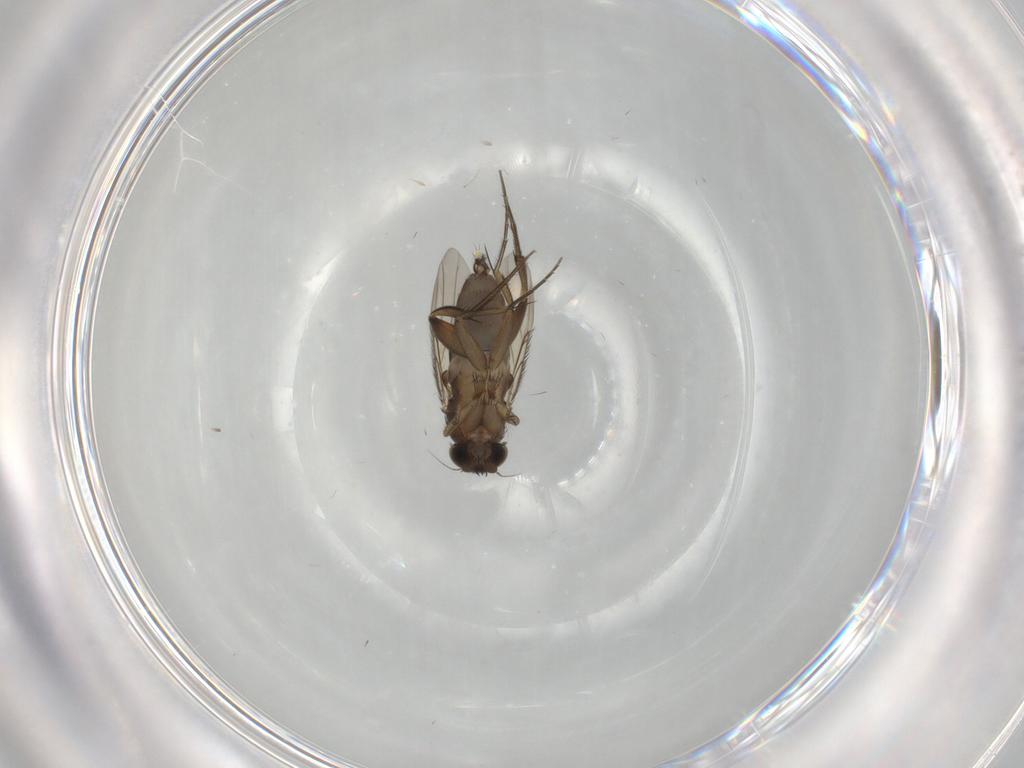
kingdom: Animalia
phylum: Arthropoda
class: Insecta
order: Diptera
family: Phoridae
